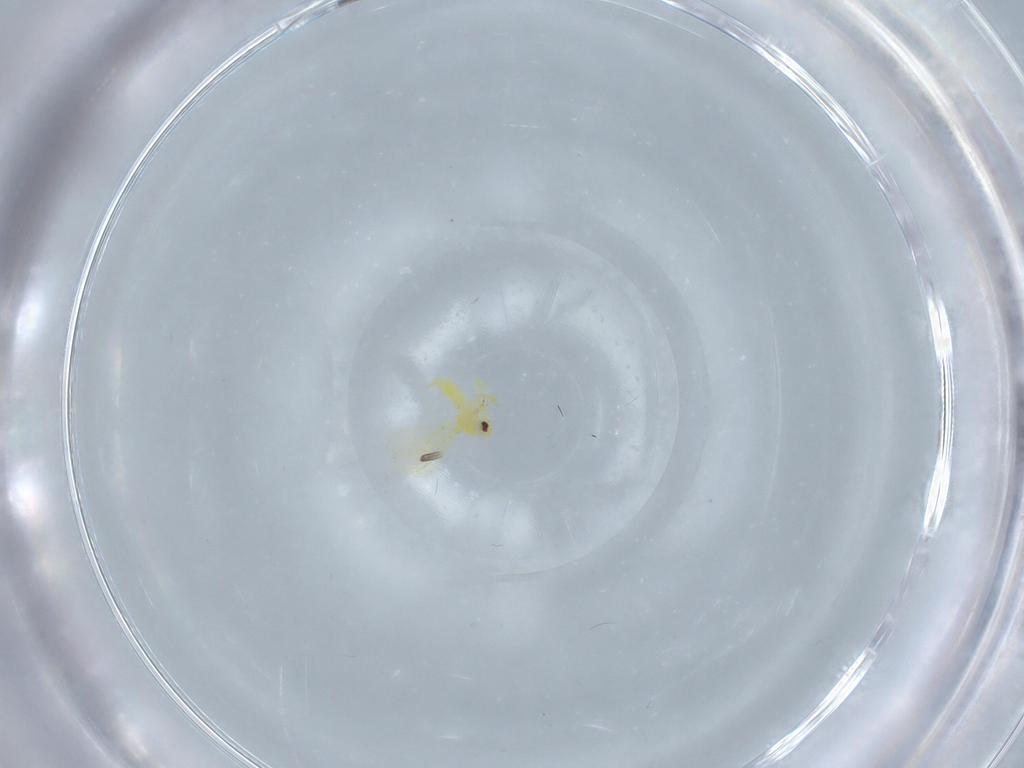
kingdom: Animalia
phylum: Arthropoda
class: Insecta
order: Hemiptera
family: Aleyrodidae
